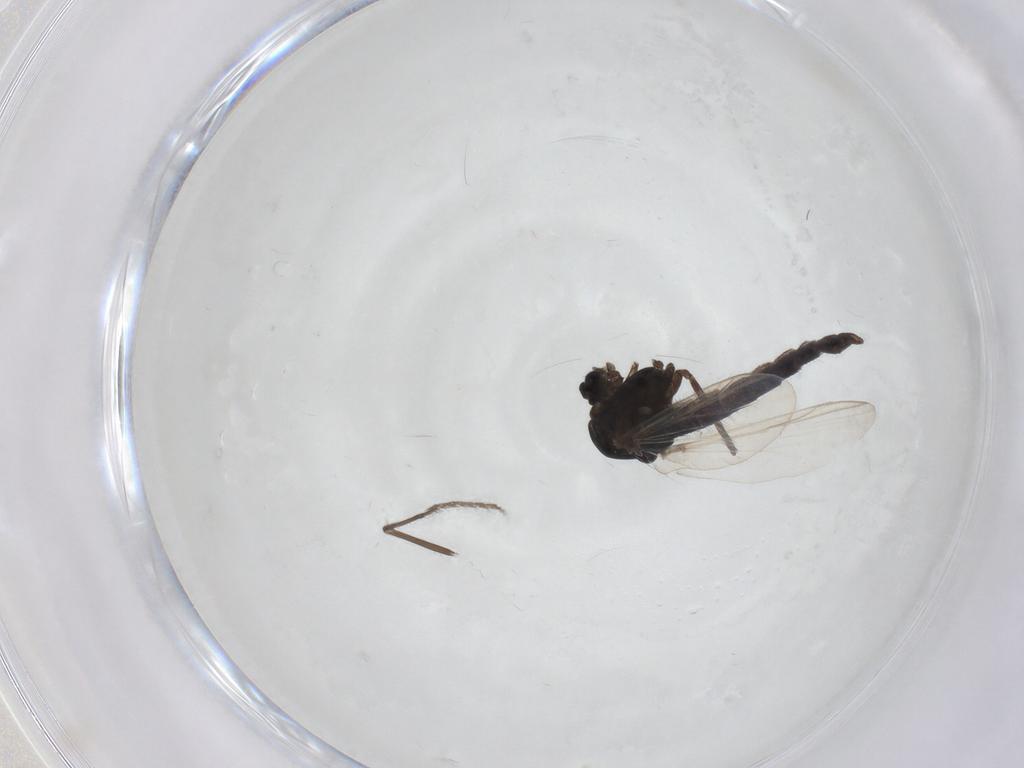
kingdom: Animalia
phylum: Arthropoda
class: Insecta
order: Diptera
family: Chironomidae
